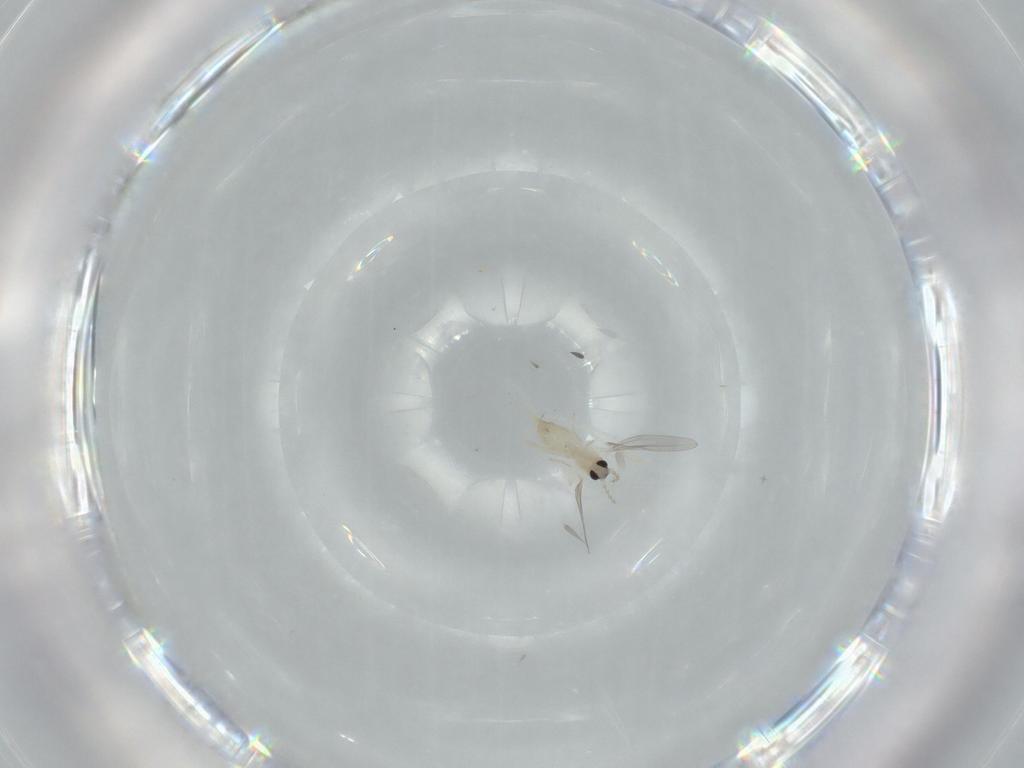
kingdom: Animalia
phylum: Arthropoda
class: Insecta
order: Diptera
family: Cecidomyiidae
